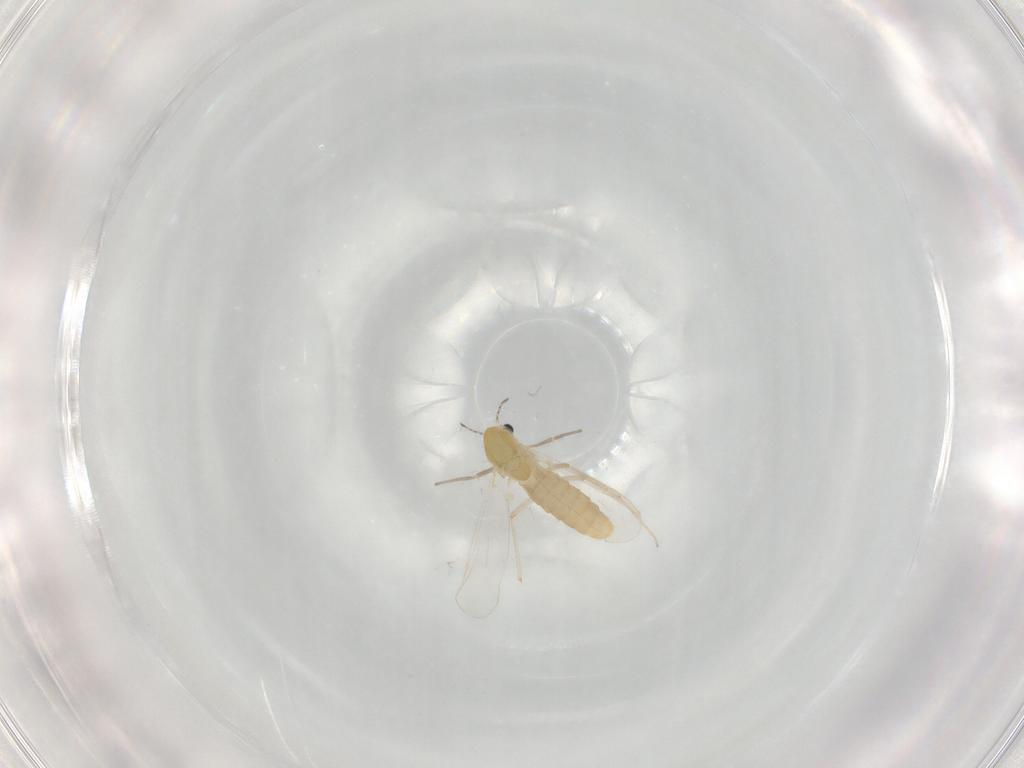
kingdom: Animalia
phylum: Arthropoda
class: Insecta
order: Diptera
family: Chironomidae
